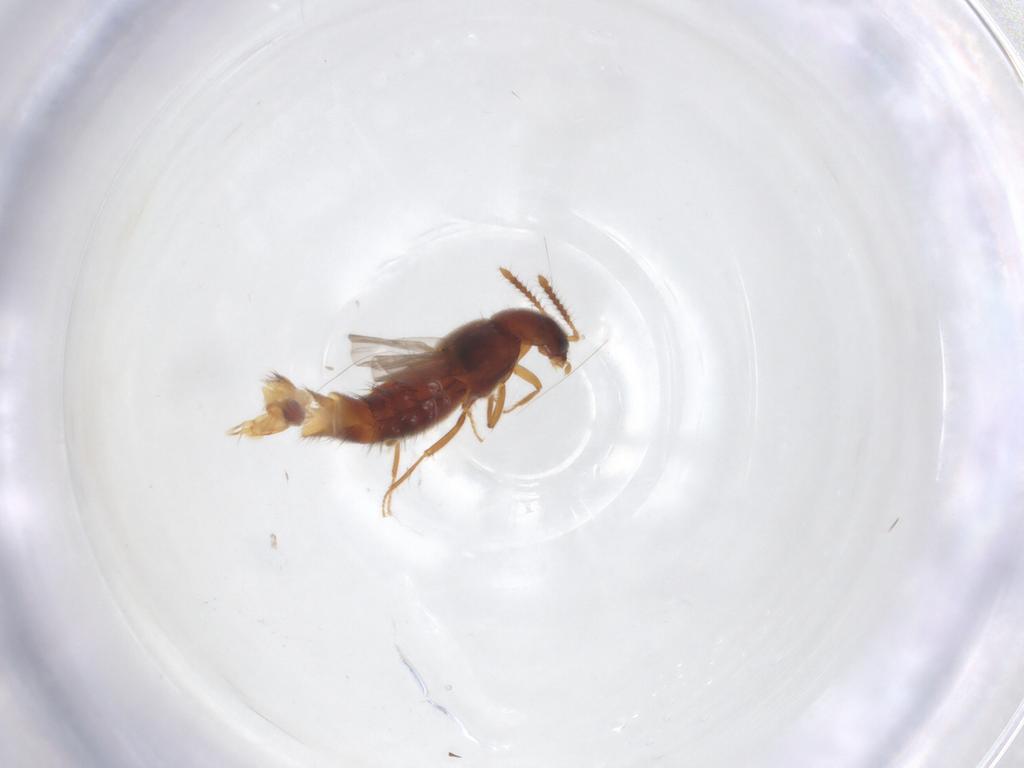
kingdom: Animalia
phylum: Arthropoda
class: Insecta
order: Coleoptera
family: Staphylinidae
